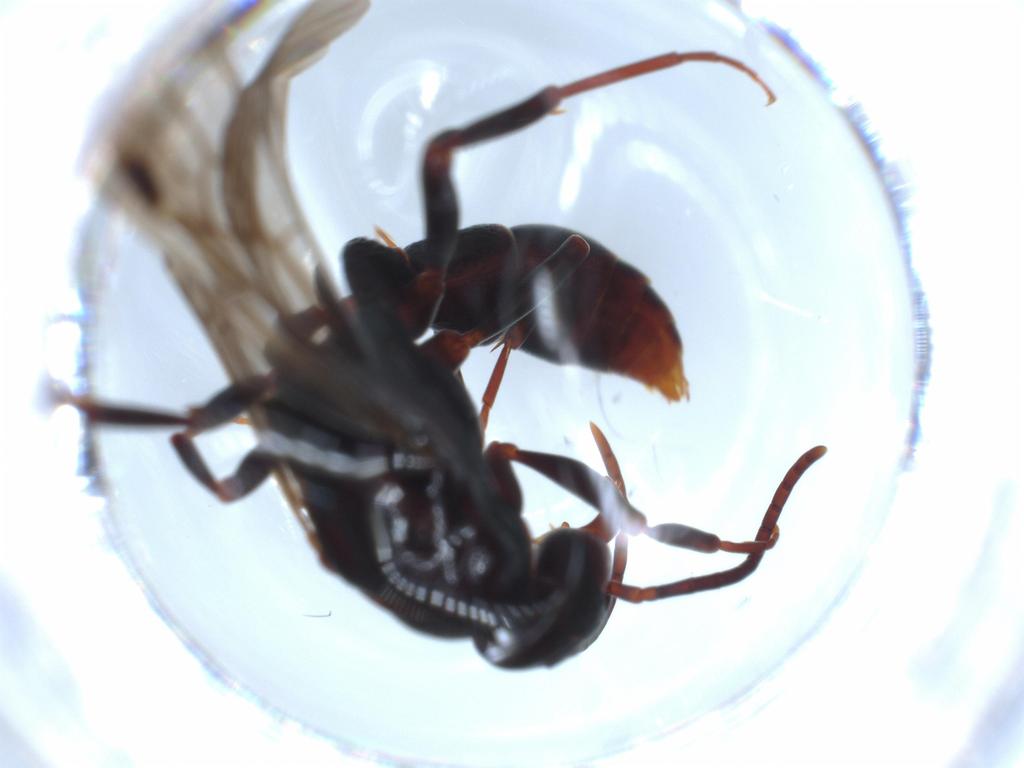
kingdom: Animalia
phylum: Arthropoda
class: Insecta
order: Hymenoptera
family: Formicidae
